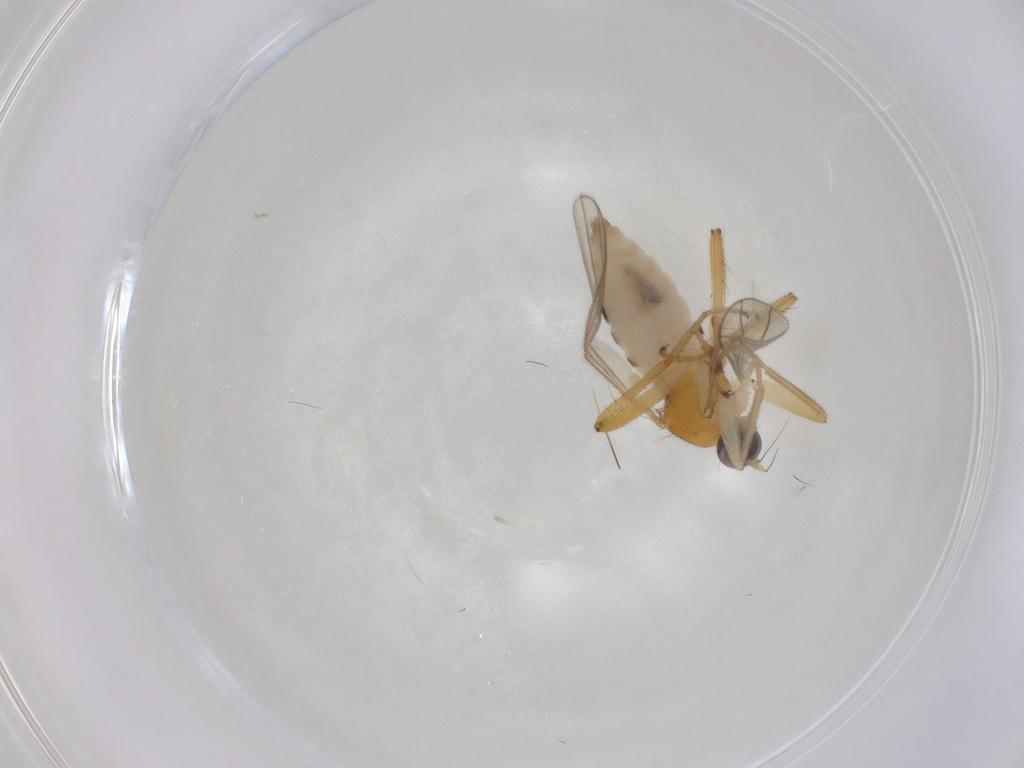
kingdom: Animalia
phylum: Arthropoda
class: Insecta
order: Diptera
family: Hybotidae
